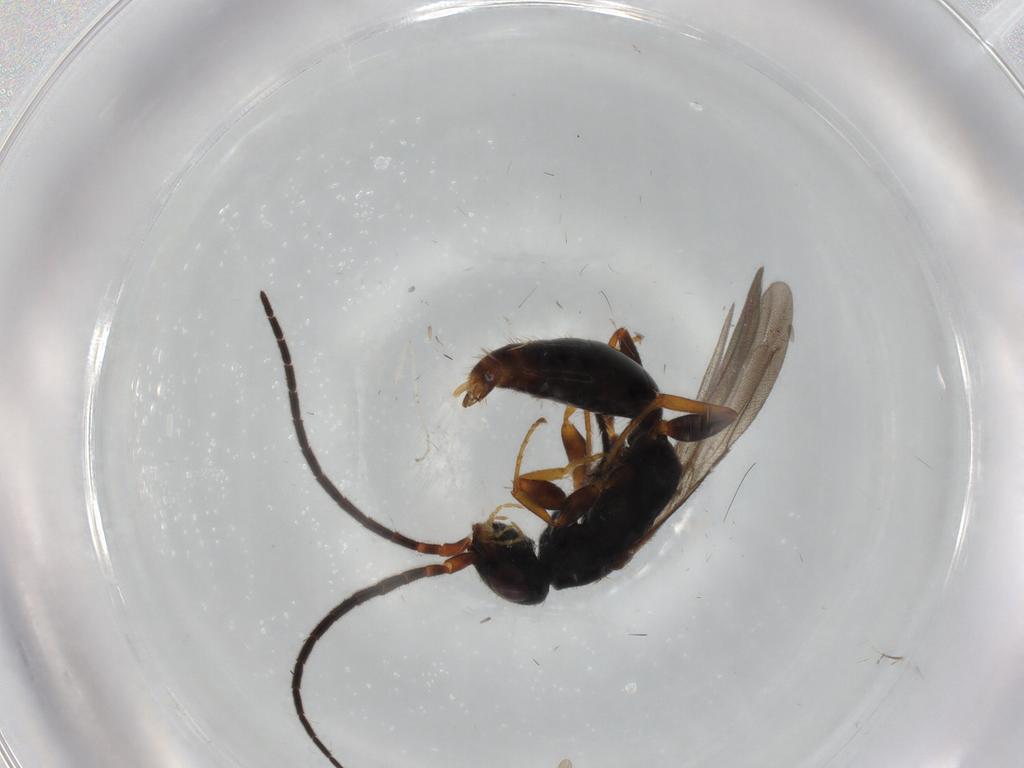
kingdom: Animalia
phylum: Arthropoda
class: Insecta
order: Hymenoptera
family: Bethylidae
